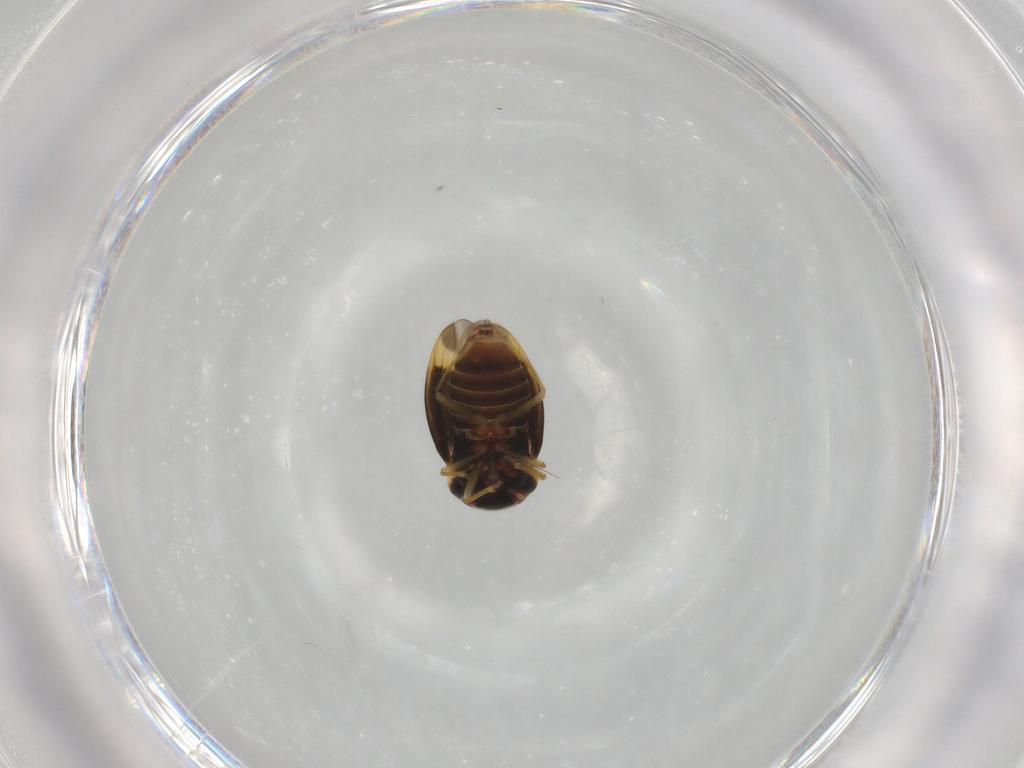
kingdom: Animalia
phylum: Arthropoda
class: Insecta
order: Hemiptera
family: Schizopteridae
